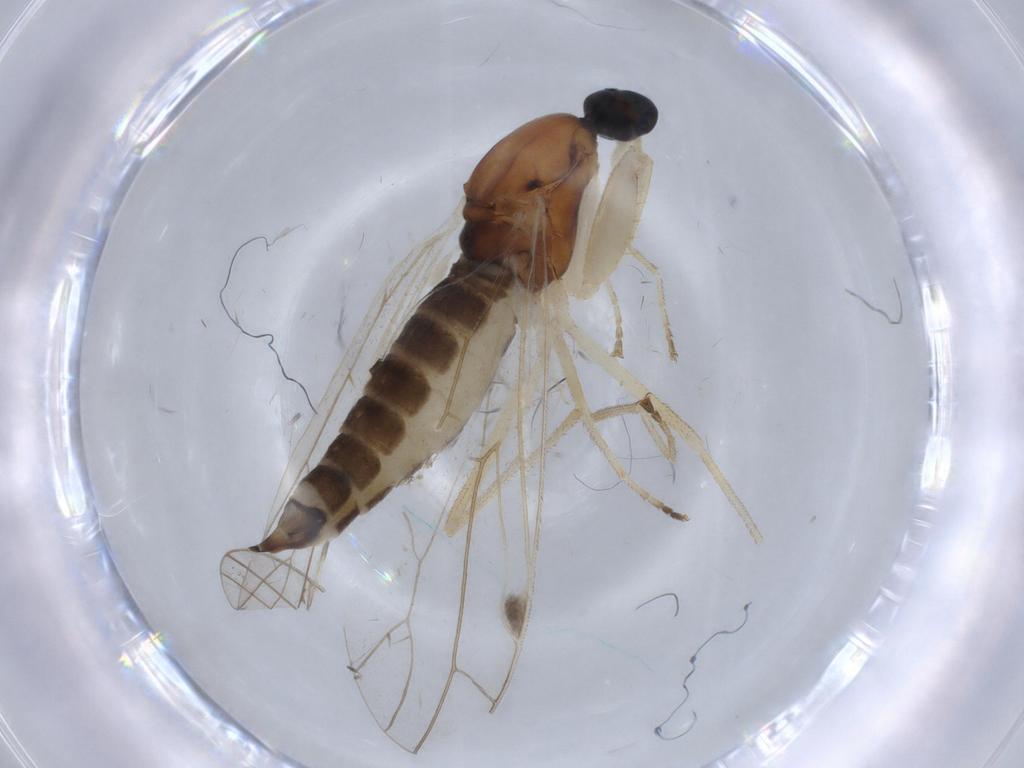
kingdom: Animalia
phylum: Arthropoda
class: Insecta
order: Diptera
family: Empididae
